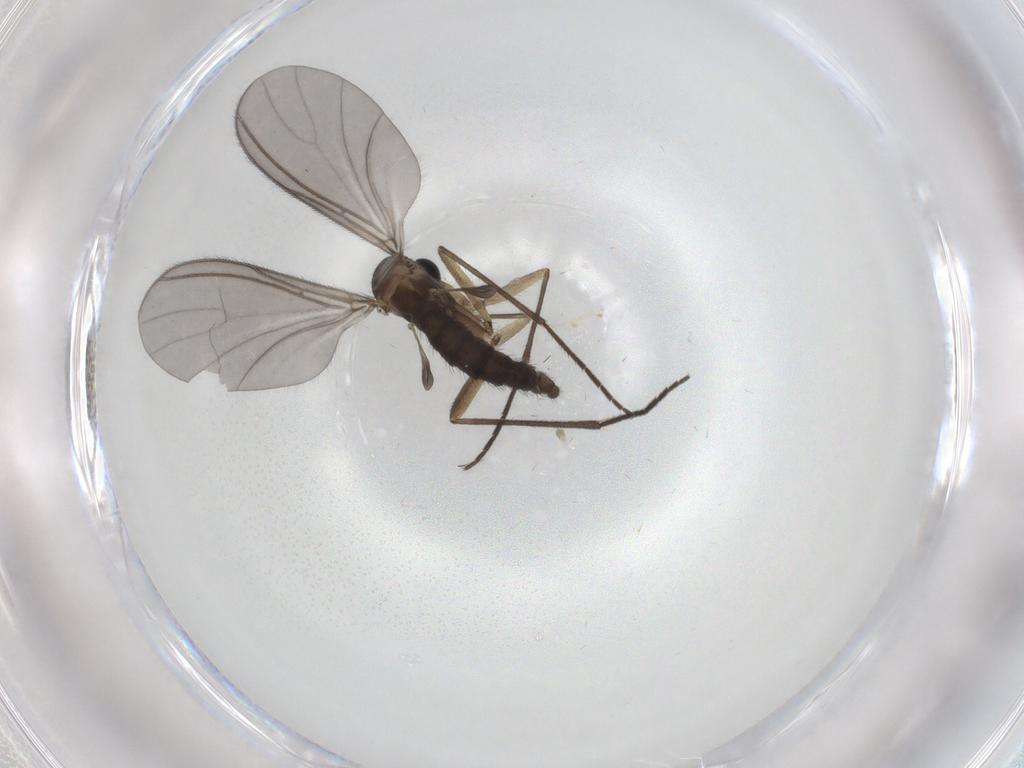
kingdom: Animalia
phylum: Arthropoda
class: Insecta
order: Diptera
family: Sciaridae
